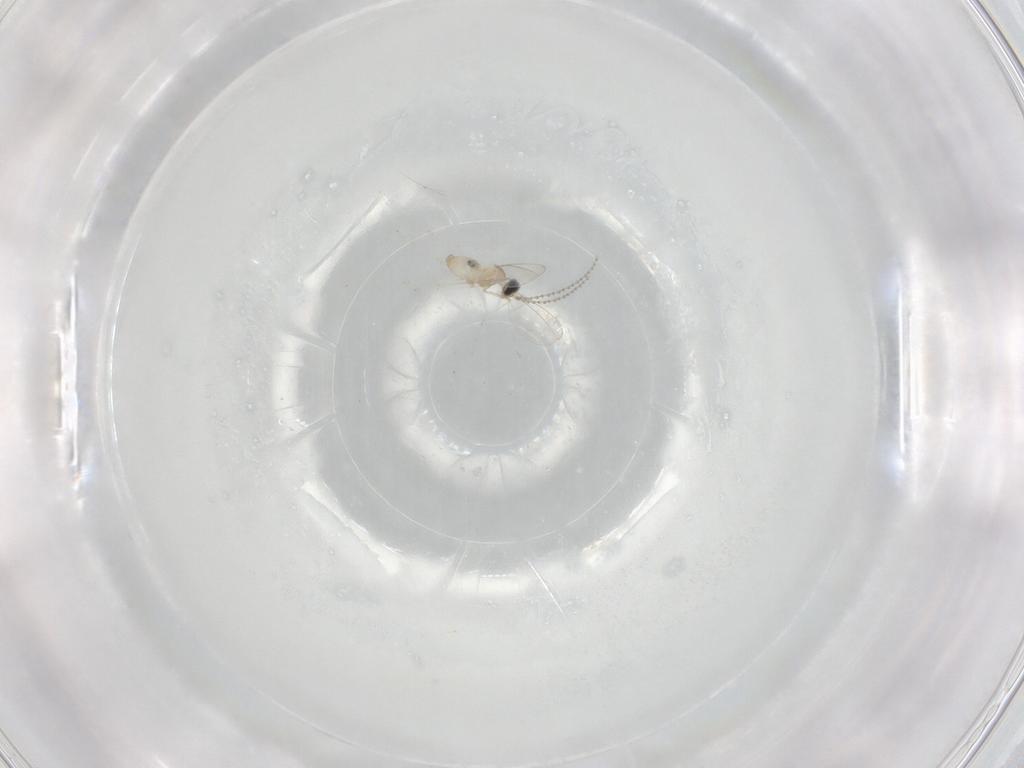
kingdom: Animalia
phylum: Arthropoda
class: Insecta
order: Diptera
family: Cecidomyiidae
